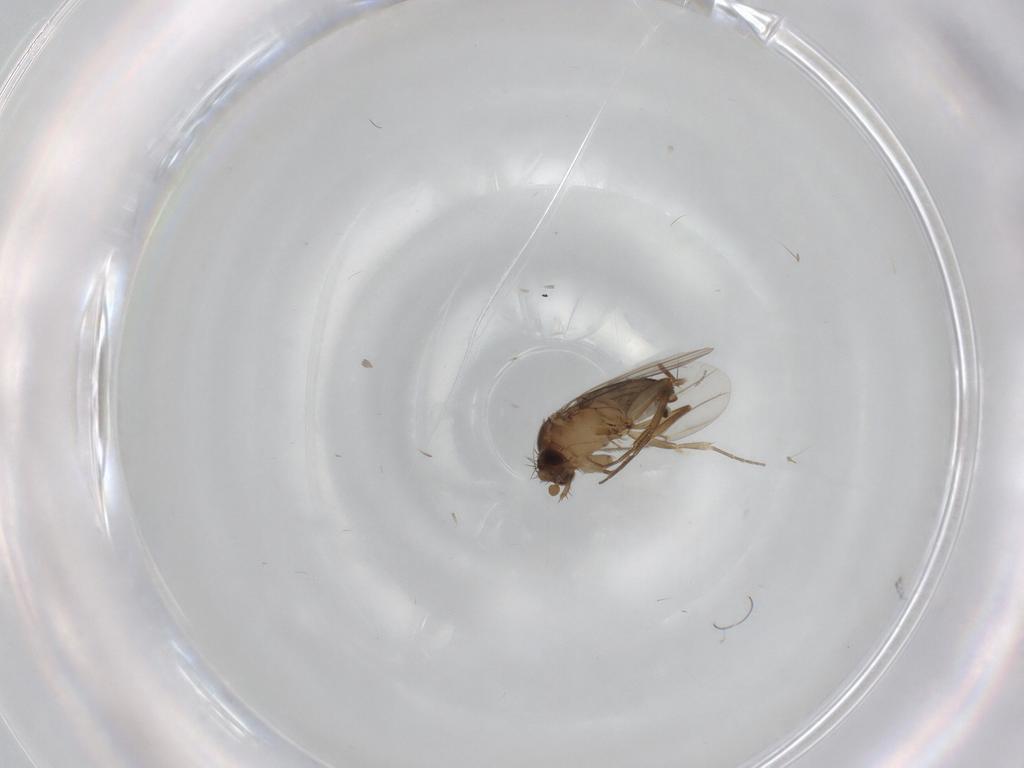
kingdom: Animalia
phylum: Arthropoda
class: Insecta
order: Diptera
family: Phoridae
